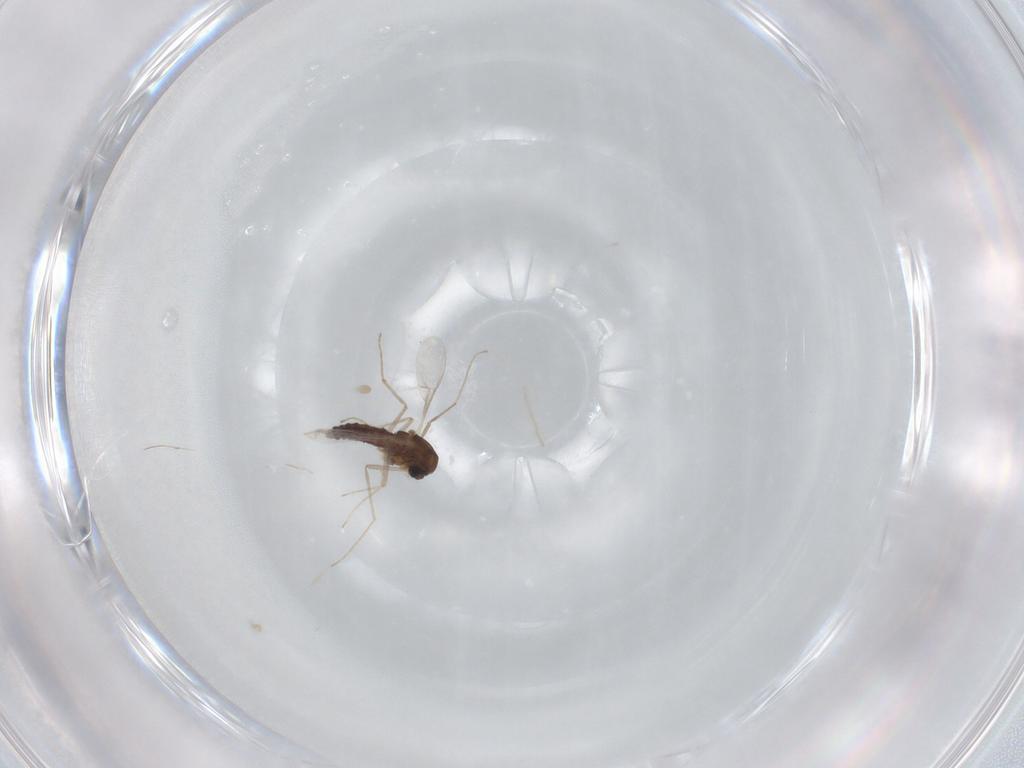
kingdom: Animalia
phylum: Arthropoda
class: Insecta
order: Diptera
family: Chironomidae
